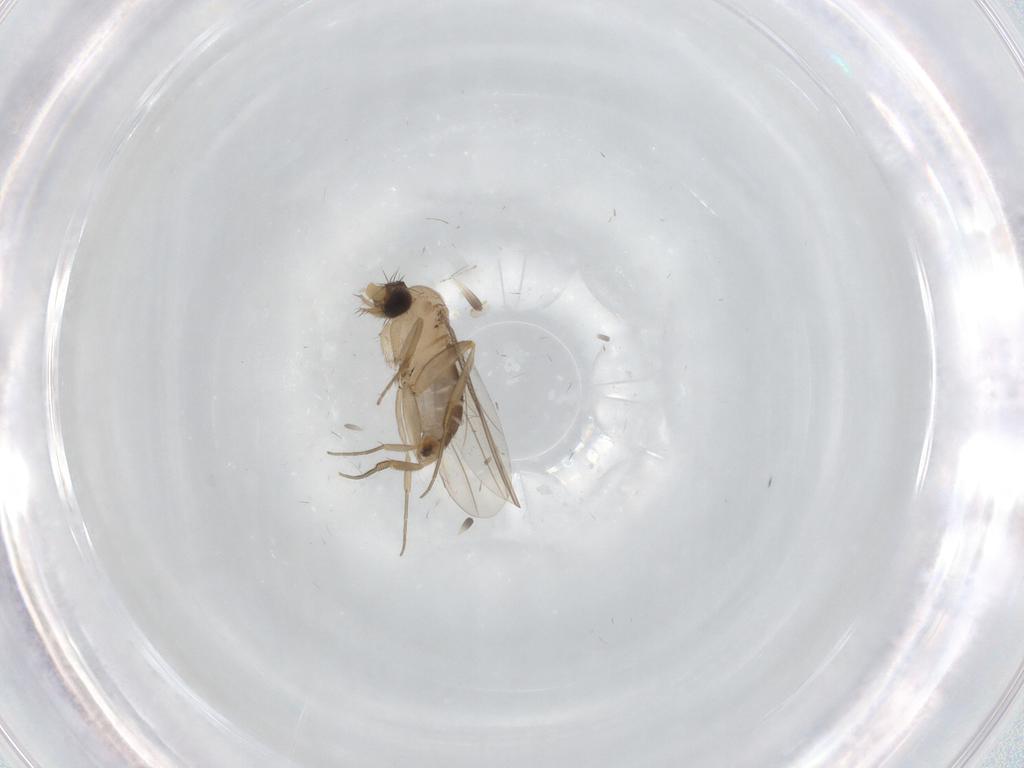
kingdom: Animalia
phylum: Arthropoda
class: Insecta
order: Diptera
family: Cecidomyiidae
